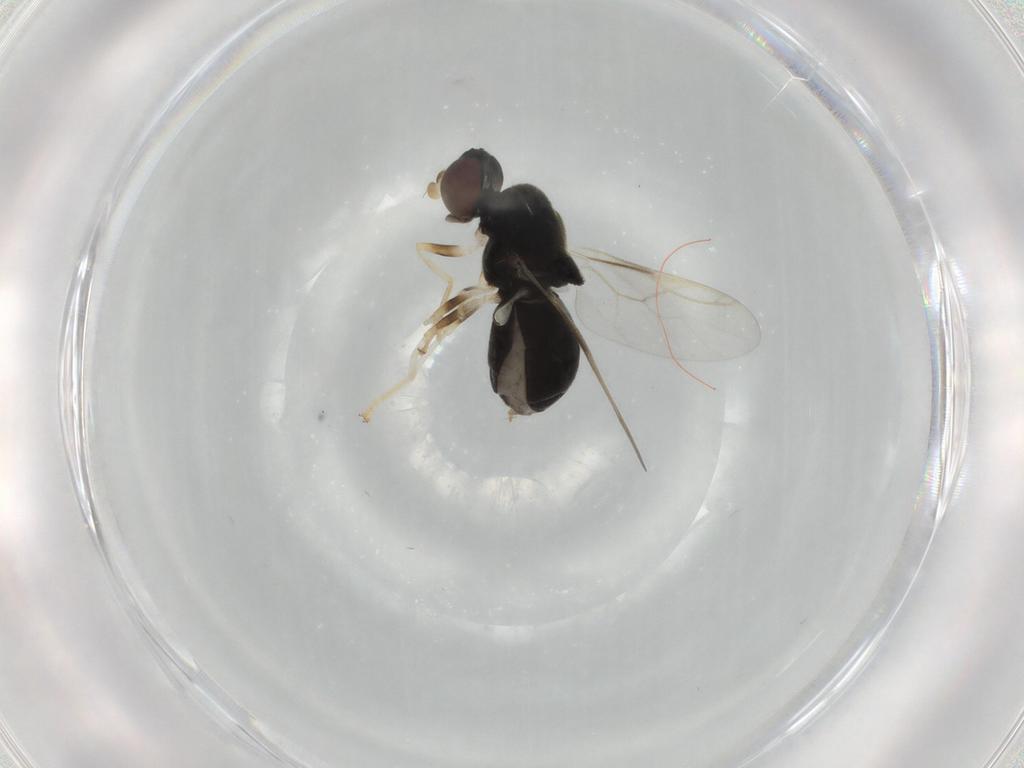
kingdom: Animalia
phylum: Arthropoda
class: Insecta
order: Diptera
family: Stratiomyidae
